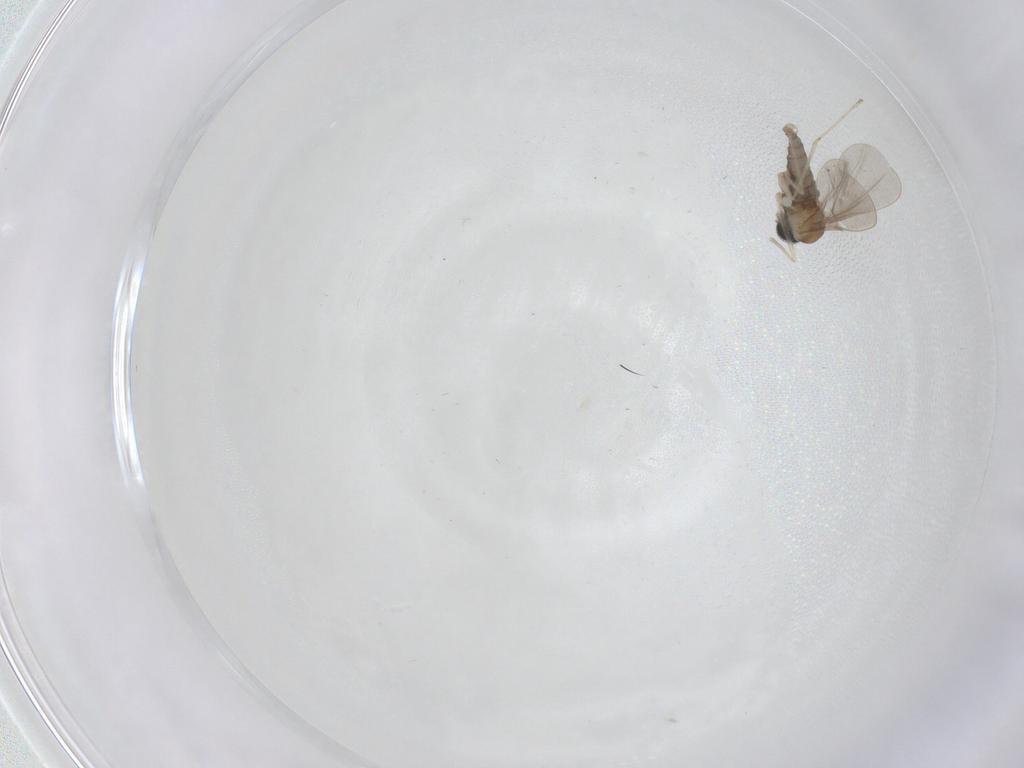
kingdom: Animalia
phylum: Arthropoda
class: Insecta
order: Diptera
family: Cecidomyiidae
